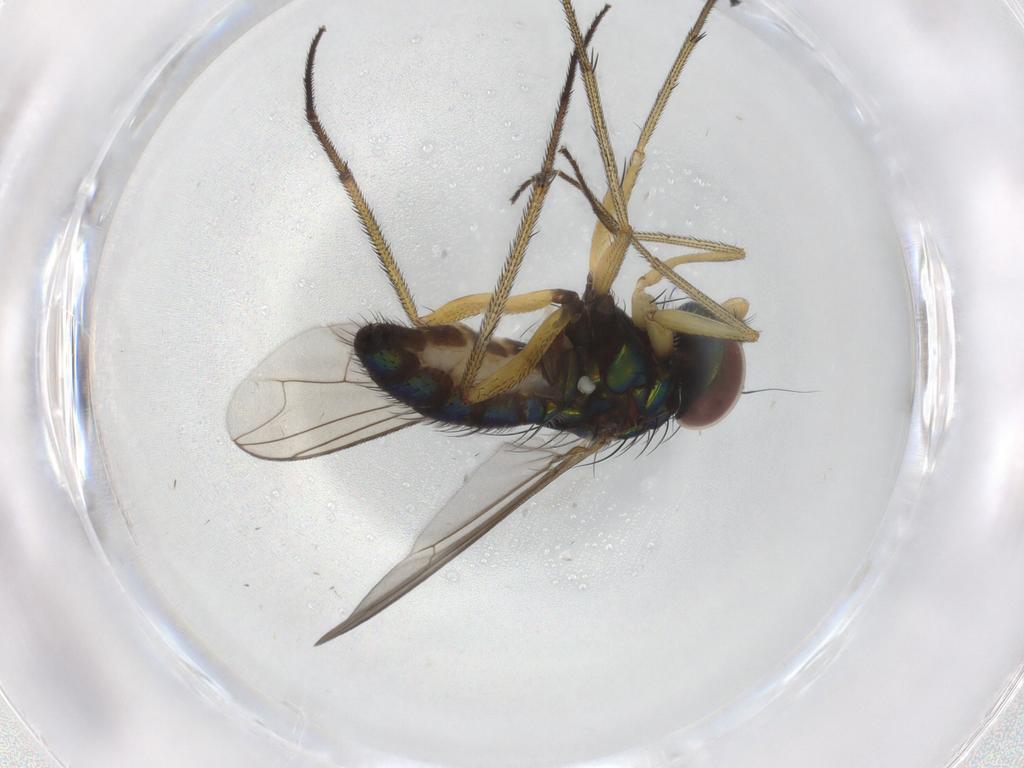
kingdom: Animalia
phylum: Arthropoda
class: Insecta
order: Diptera
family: Dolichopodidae
